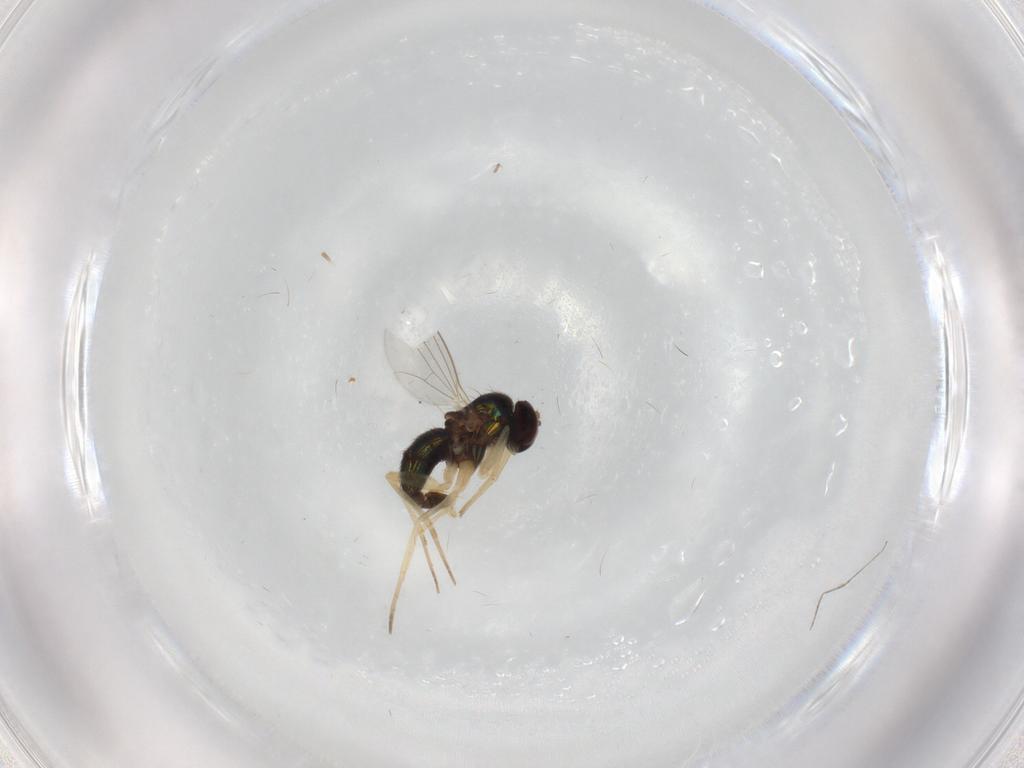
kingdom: Animalia
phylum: Arthropoda
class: Insecta
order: Diptera
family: Dolichopodidae
